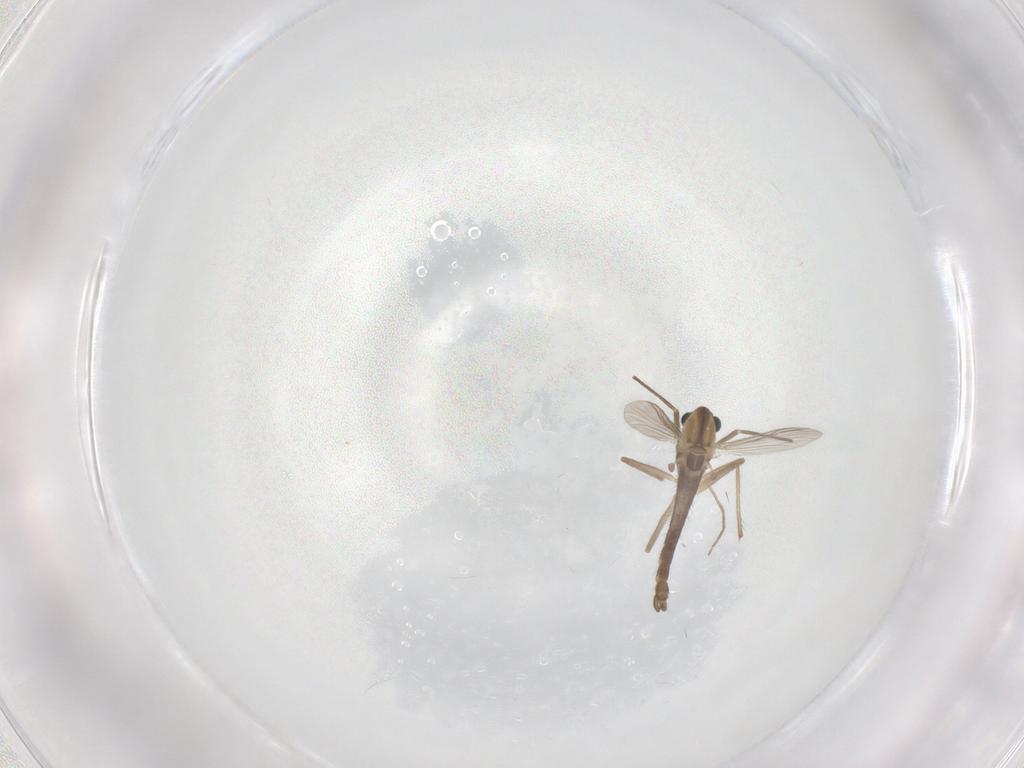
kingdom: Animalia
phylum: Arthropoda
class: Insecta
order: Diptera
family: Chironomidae
